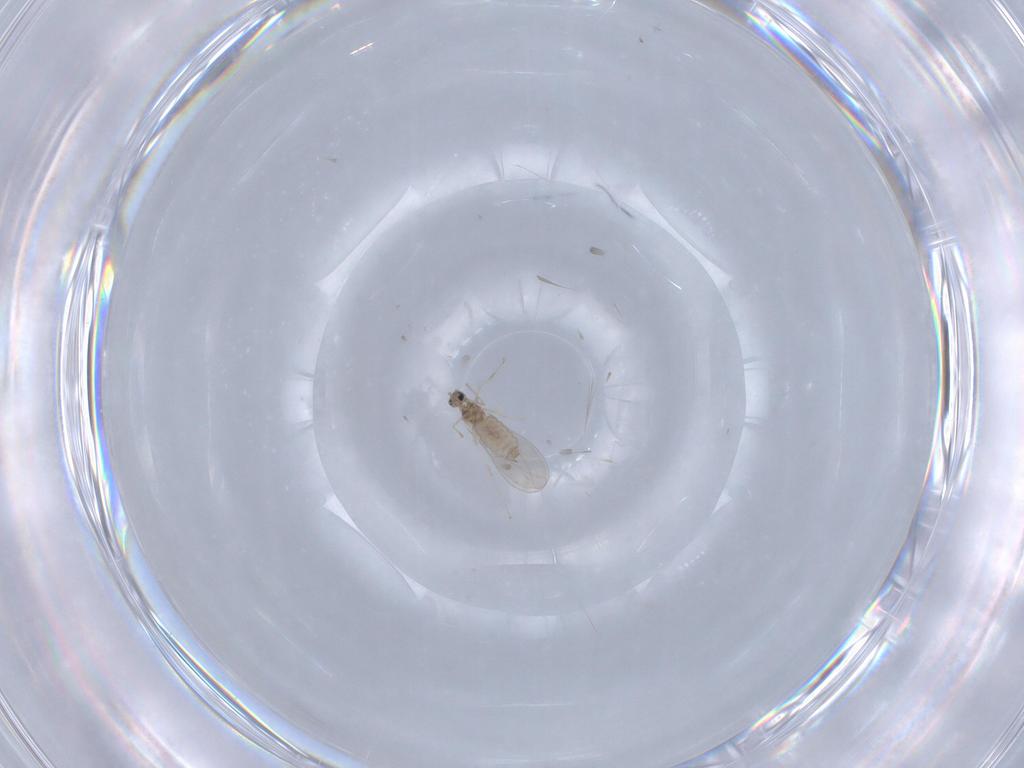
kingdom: Animalia
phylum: Arthropoda
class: Insecta
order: Diptera
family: Cecidomyiidae
